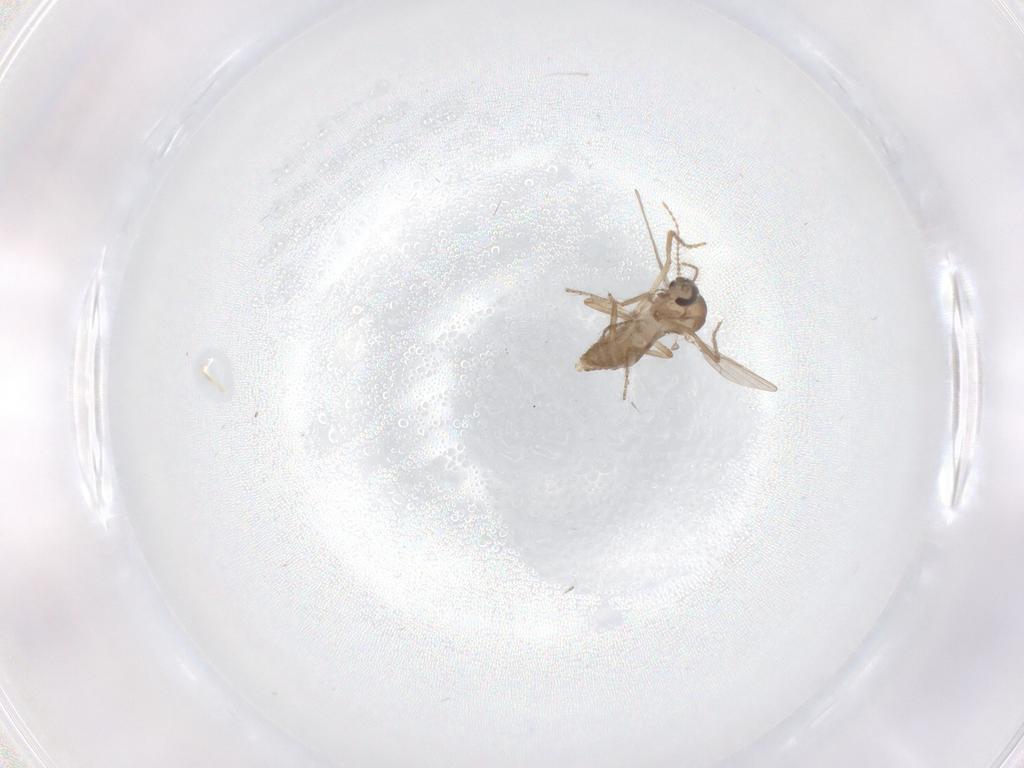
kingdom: Animalia
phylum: Arthropoda
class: Insecta
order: Diptera
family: Ceratopogonidae
